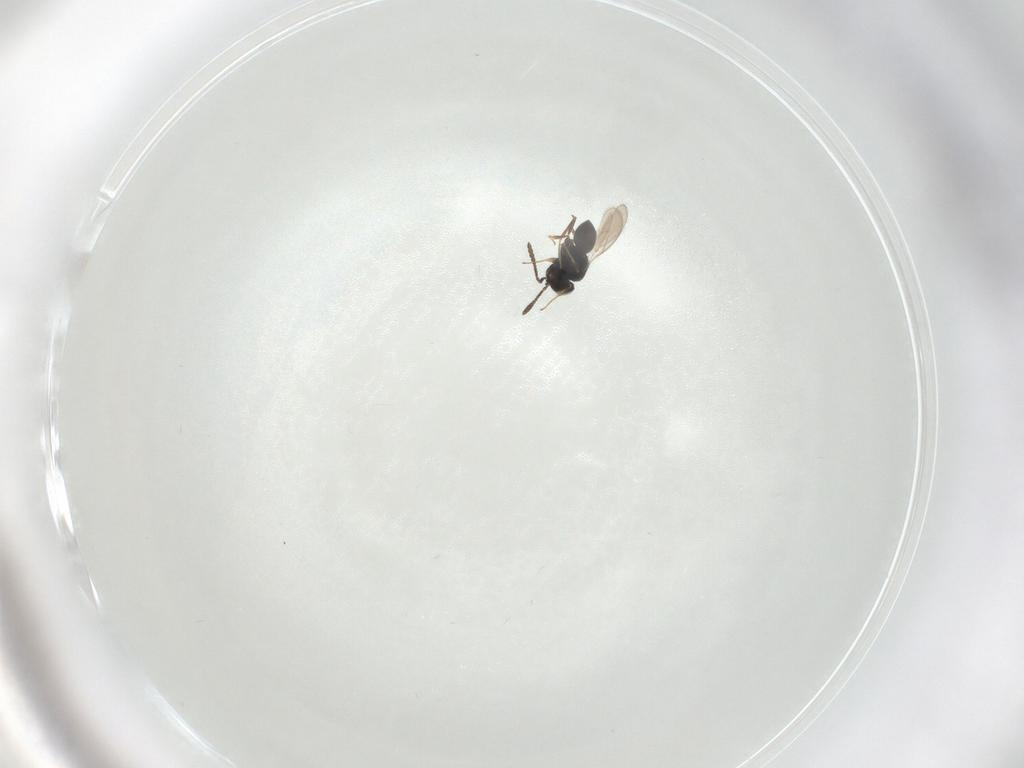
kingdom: Animalia
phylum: Arthropoda
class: Insecta
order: Hymenoptera
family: Scelionidae
